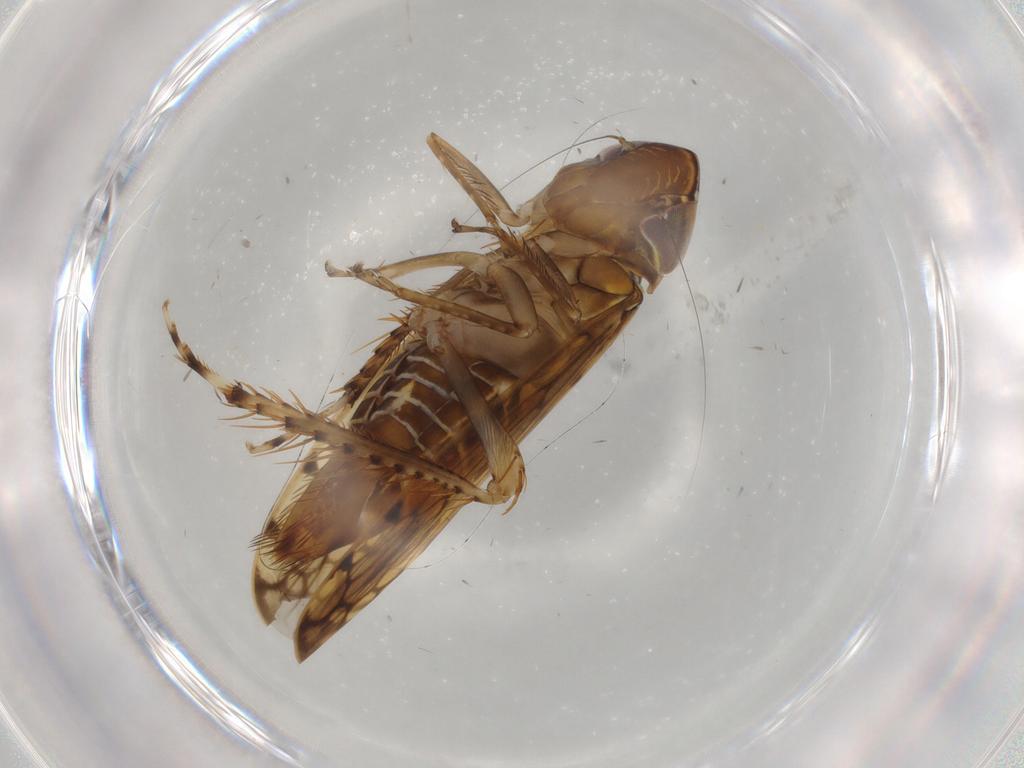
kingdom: Animalia
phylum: Arthropoda
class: Insecta
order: Hemiptera
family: Cicadellidae
